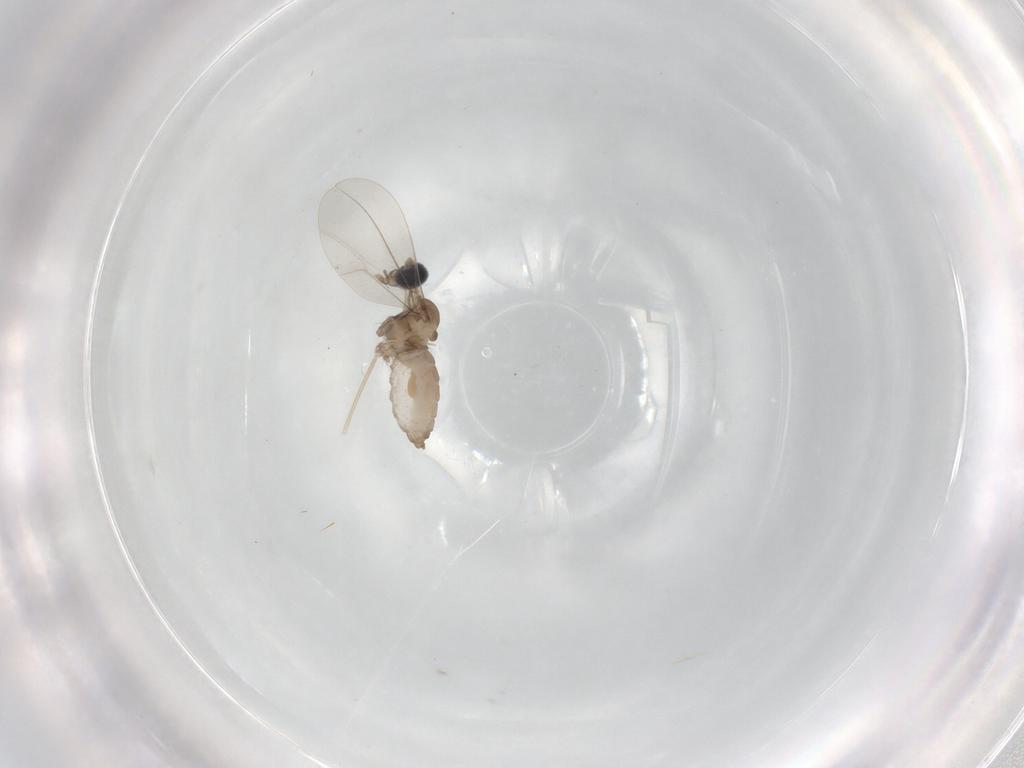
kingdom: Animalia
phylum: Arthropoda
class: Insecta
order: Diptera
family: Cecidomyiidae
